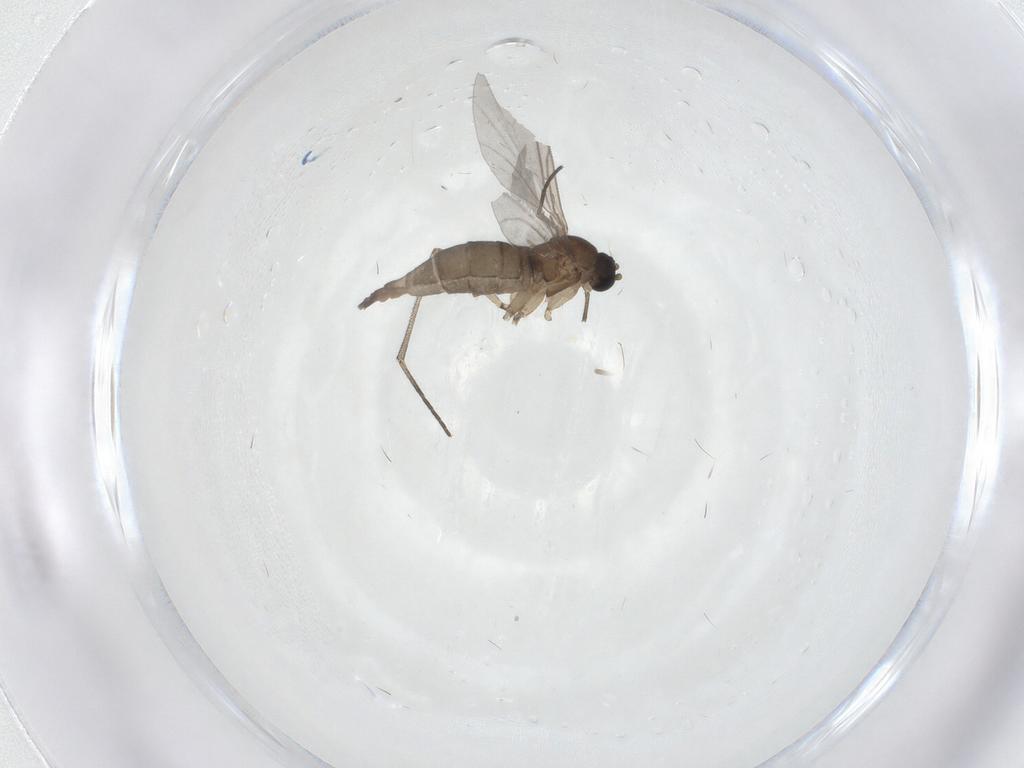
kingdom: Animalia
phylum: Arthropoda
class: Insecta
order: Diptera
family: Sciaridae
